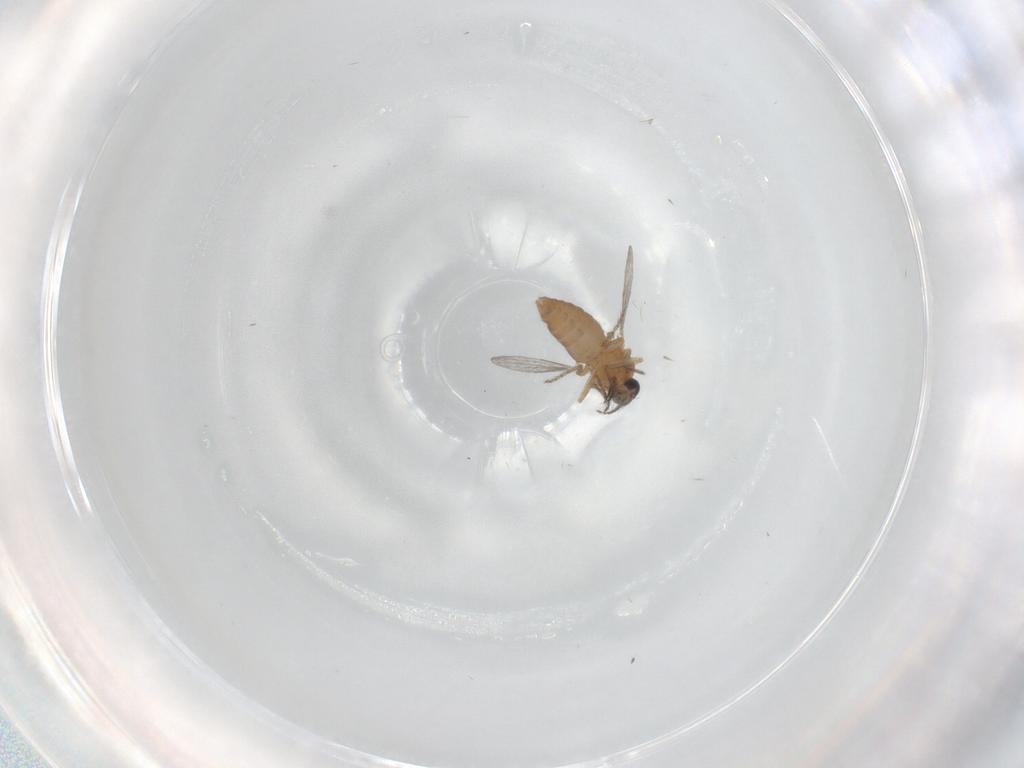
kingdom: Animalia
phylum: Arthropoda
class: Insecta
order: Diptera
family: Ceratopogonidae
